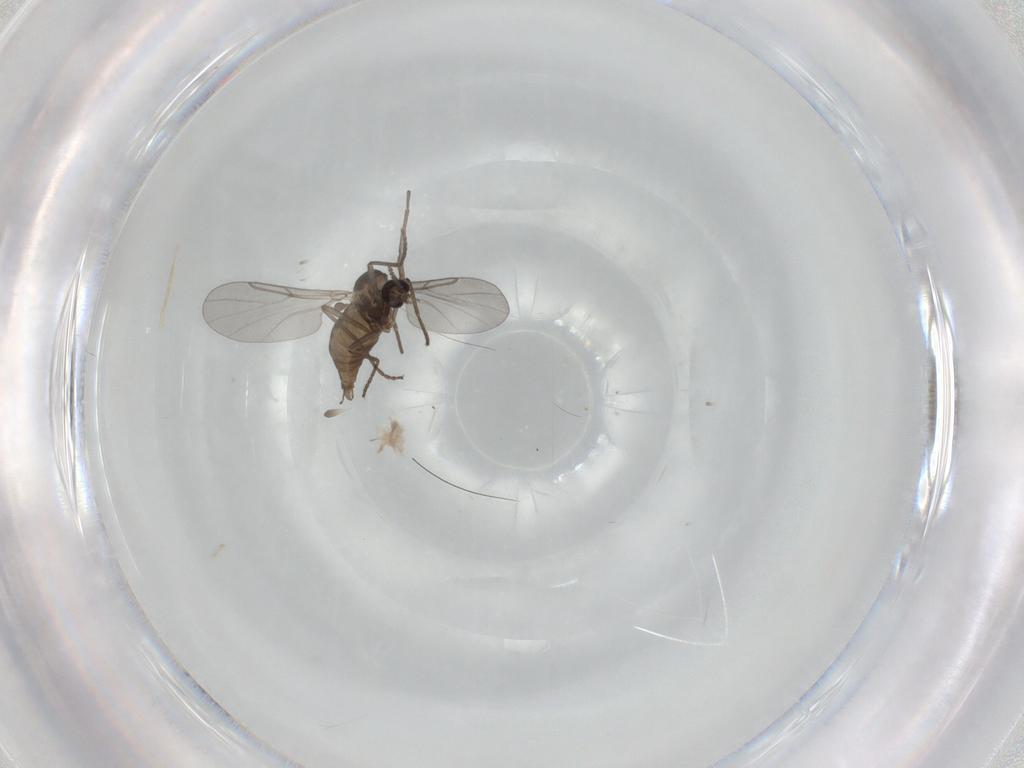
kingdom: Animalia
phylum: Arthropoda
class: Insecta
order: Diptera
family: Cecidomyiidae
